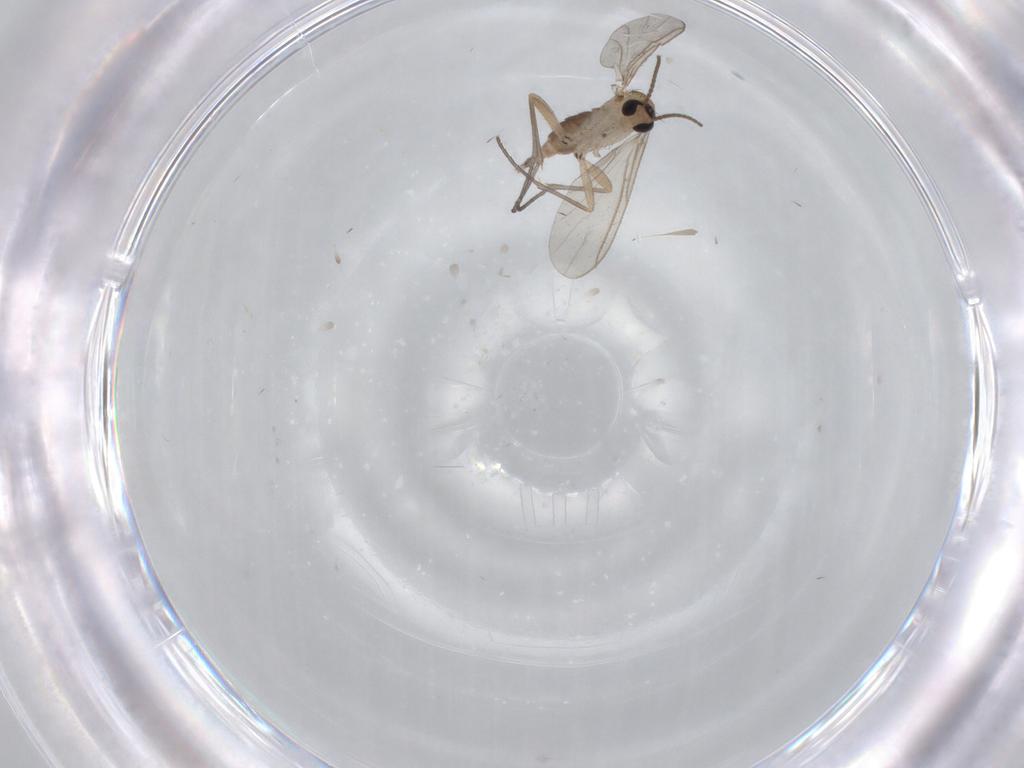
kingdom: Animalia
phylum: Arthropoda
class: Insecta
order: Diptera
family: Sciaridae
